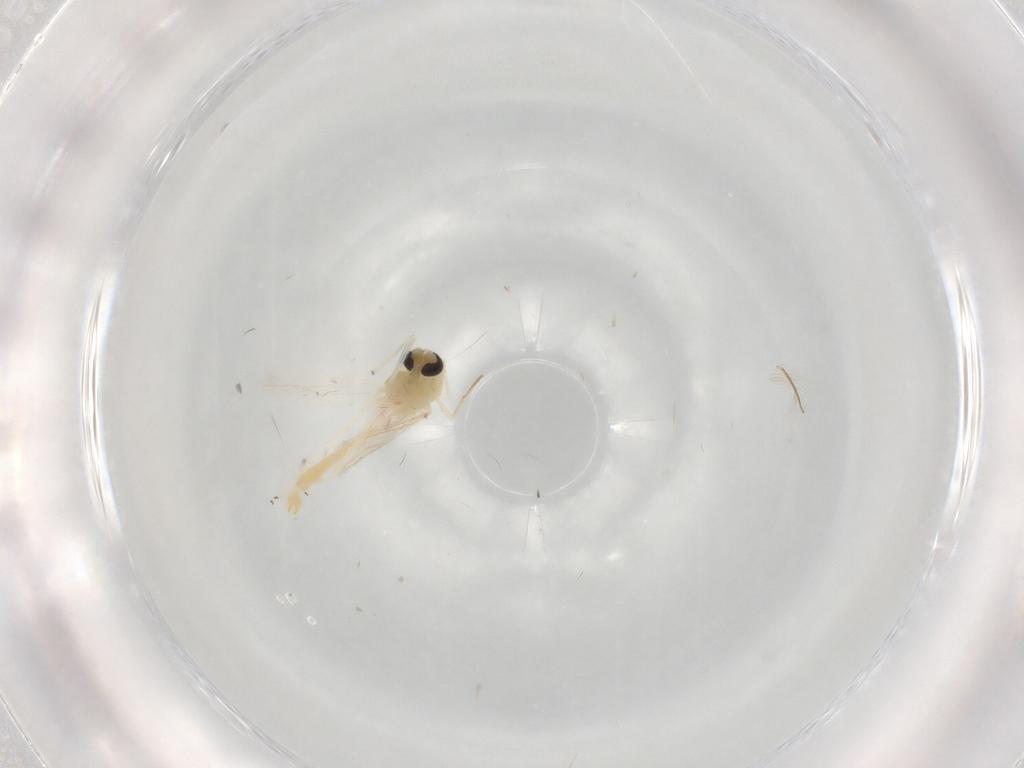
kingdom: Animalia
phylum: Arthropoda
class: Insecta
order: Diptera
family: Chironomidae
